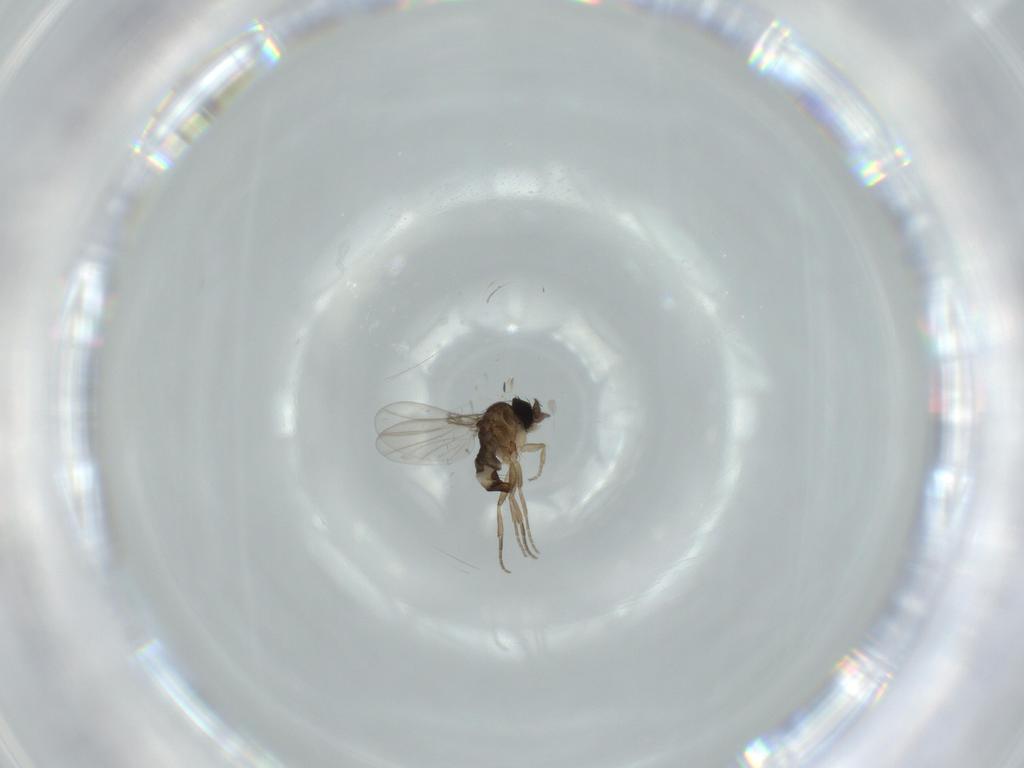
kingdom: Animalia
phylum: Arthropoda
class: Insecta
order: Diptera
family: Phoridae
